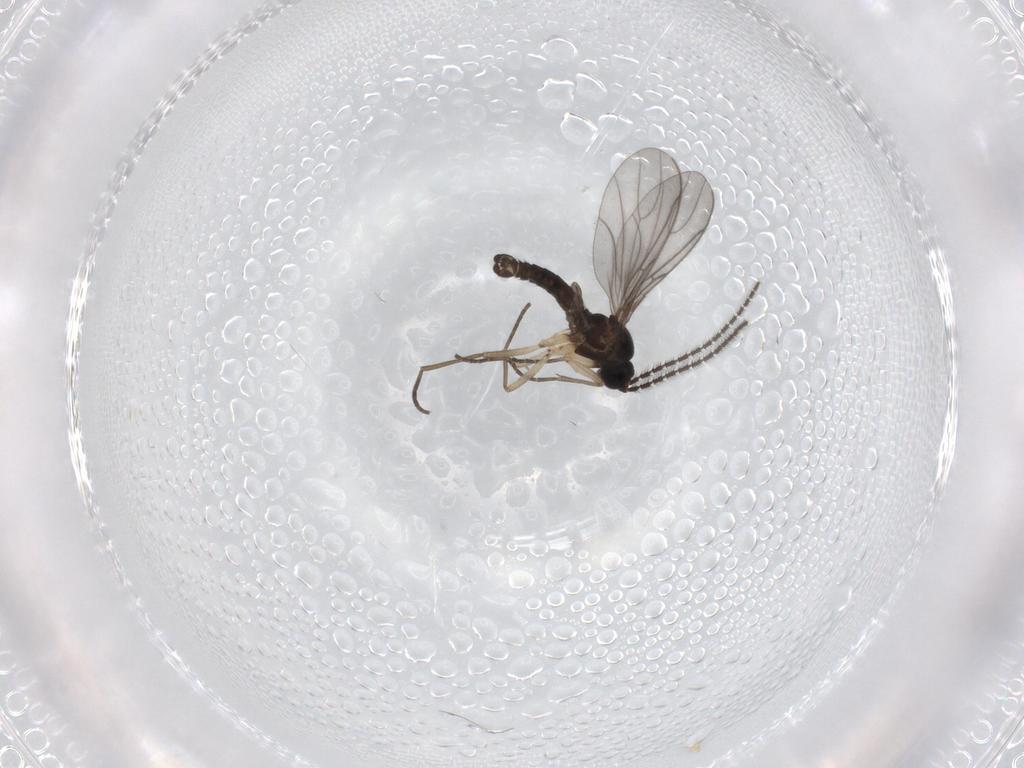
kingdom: Animalia
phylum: Arthropoda
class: Insecta
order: Diptera
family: Sciaridae
